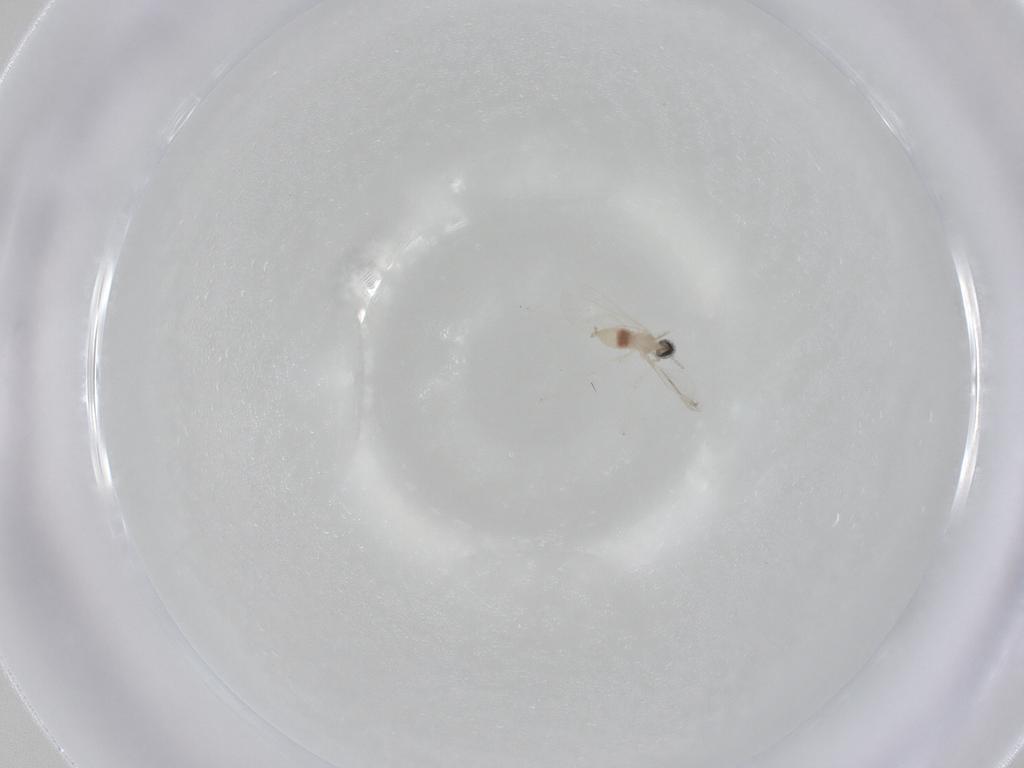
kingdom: Animalia
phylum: Arthropoda
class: Insecta
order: Diptera
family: Cecidomyiidae
